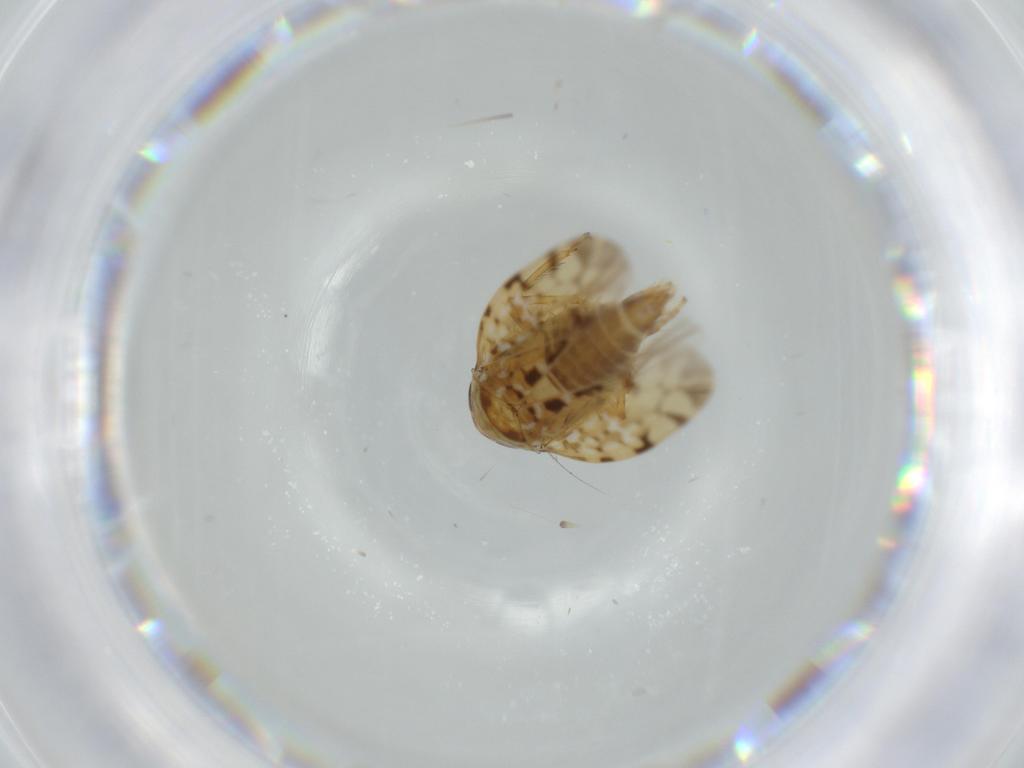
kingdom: Animalia
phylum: Arthropoda
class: Insecta
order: Hemiptera
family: Cicadellidae
